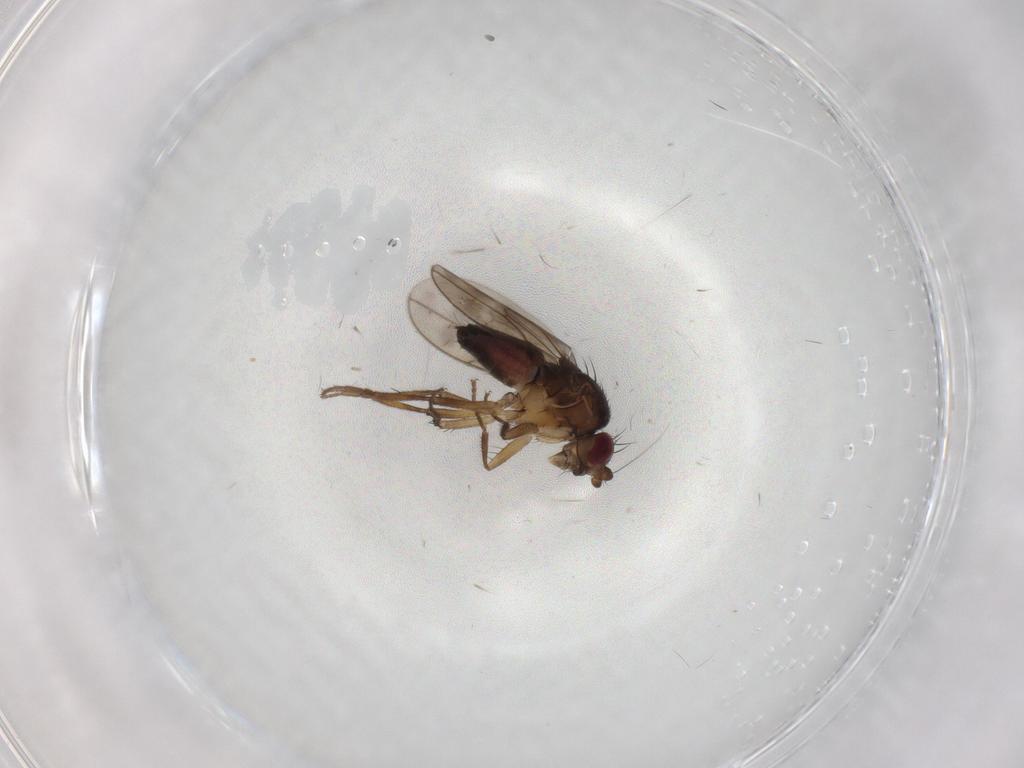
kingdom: Animalia
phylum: Arthropoda
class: Insecta
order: Diptera
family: Sphaeroceridae
